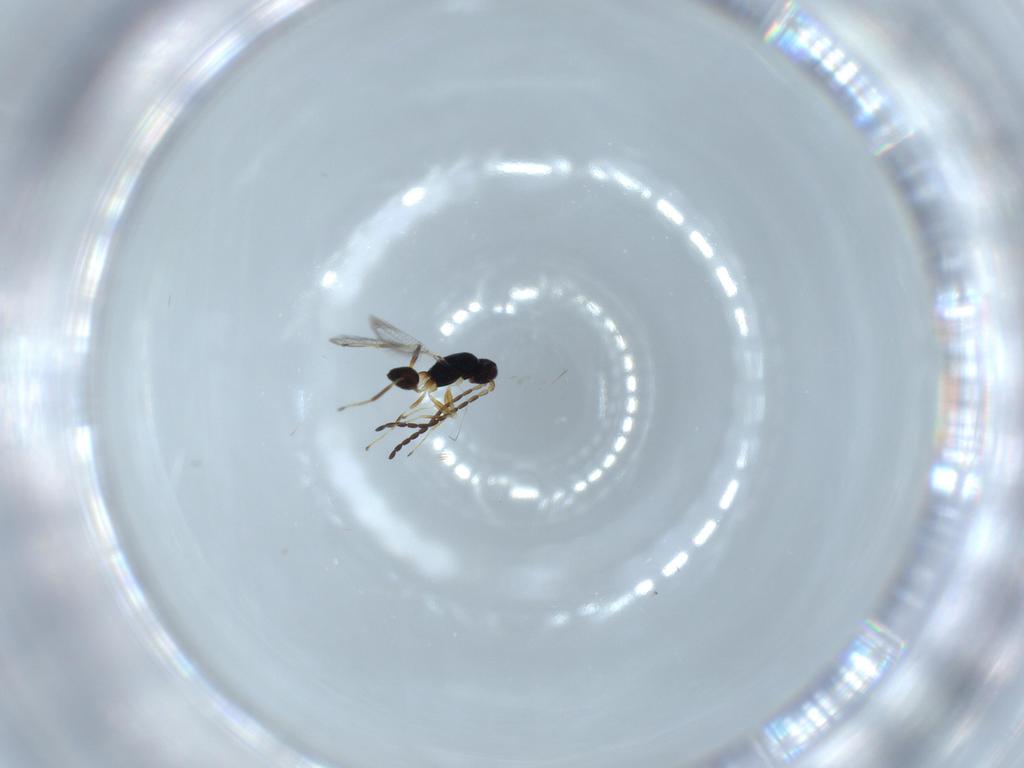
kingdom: Animalia
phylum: Arthropoda
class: Insecta
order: Hymenoptera
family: Mymaridae
